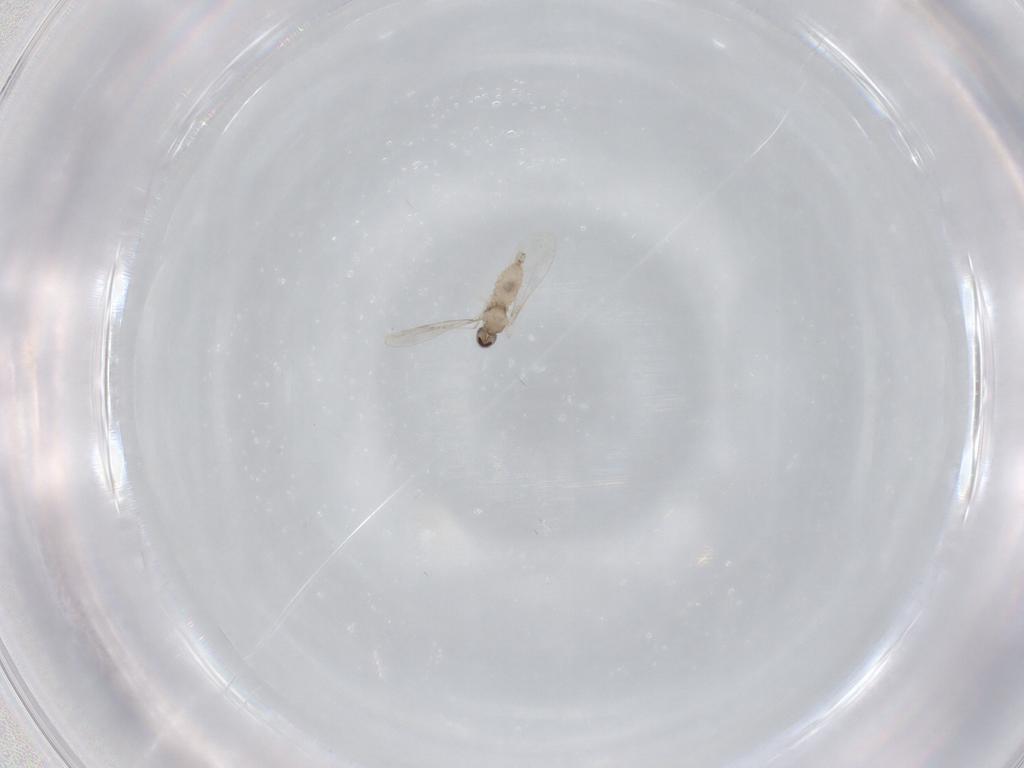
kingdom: Animalia
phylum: Arthropoda
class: Insecta
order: Diptera
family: Cecidomyiidae
